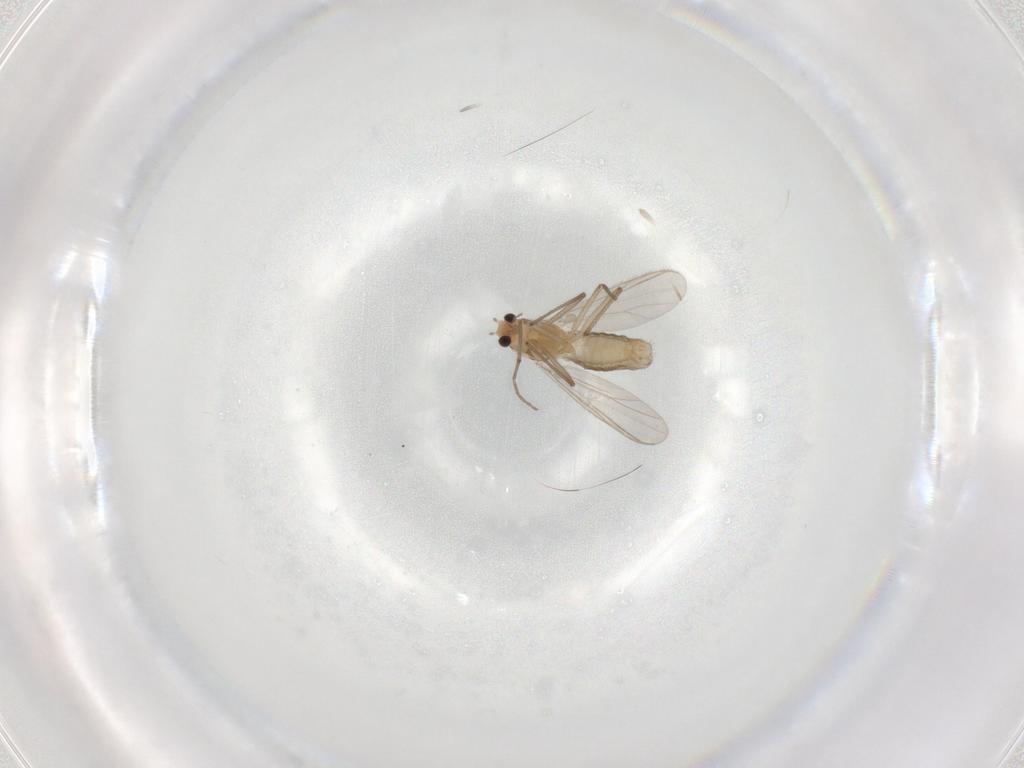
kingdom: Animalia
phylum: Arthropoda
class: Insecta
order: Diptera
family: Chironomidae
